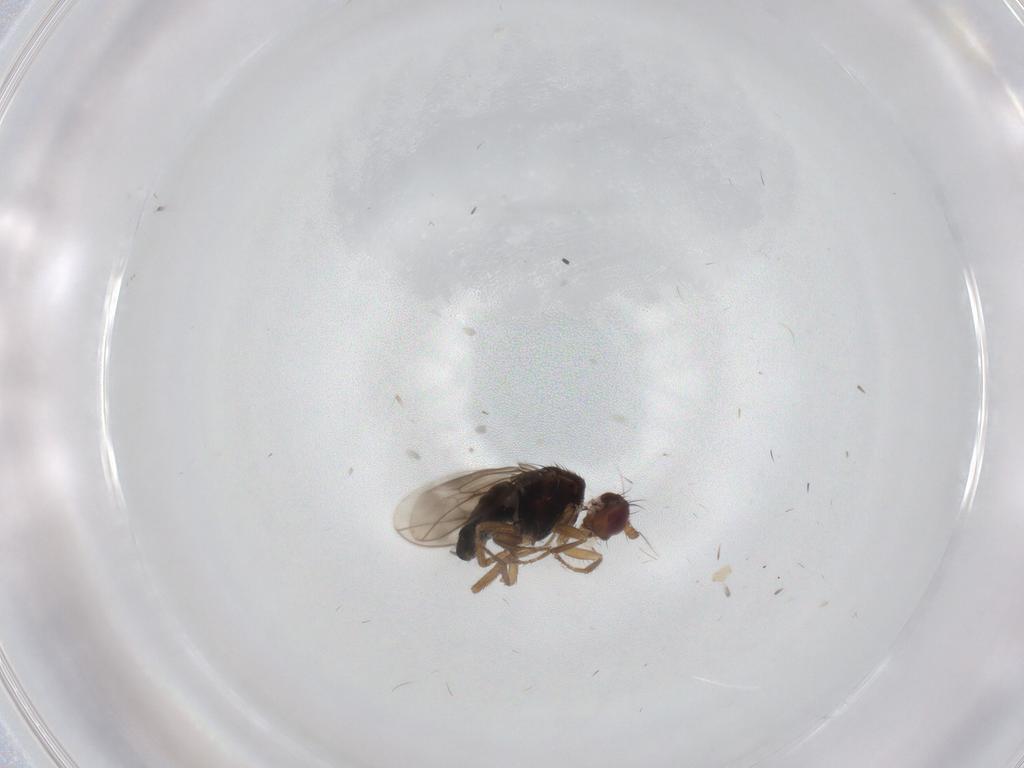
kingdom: Animalia
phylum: Arthropoda
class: Insecta
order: Diptera
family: Sphaeroceridae
